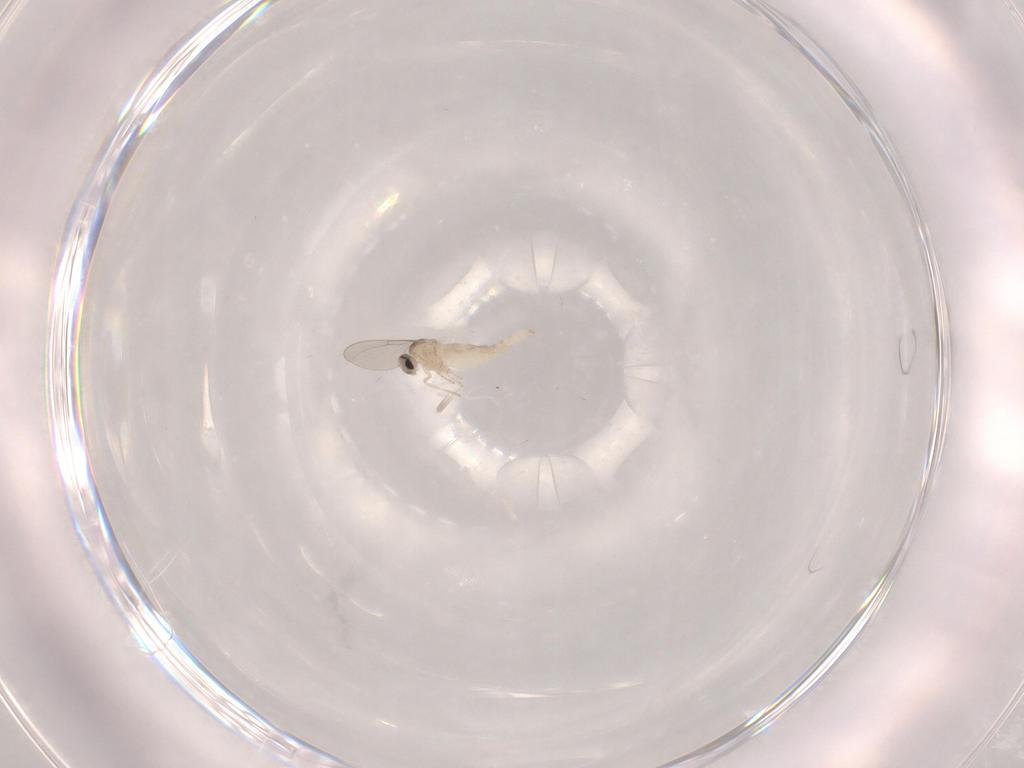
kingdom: Animalia
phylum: Arthropoda
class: Insecta
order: Diptera
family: Cecidomyiidae
